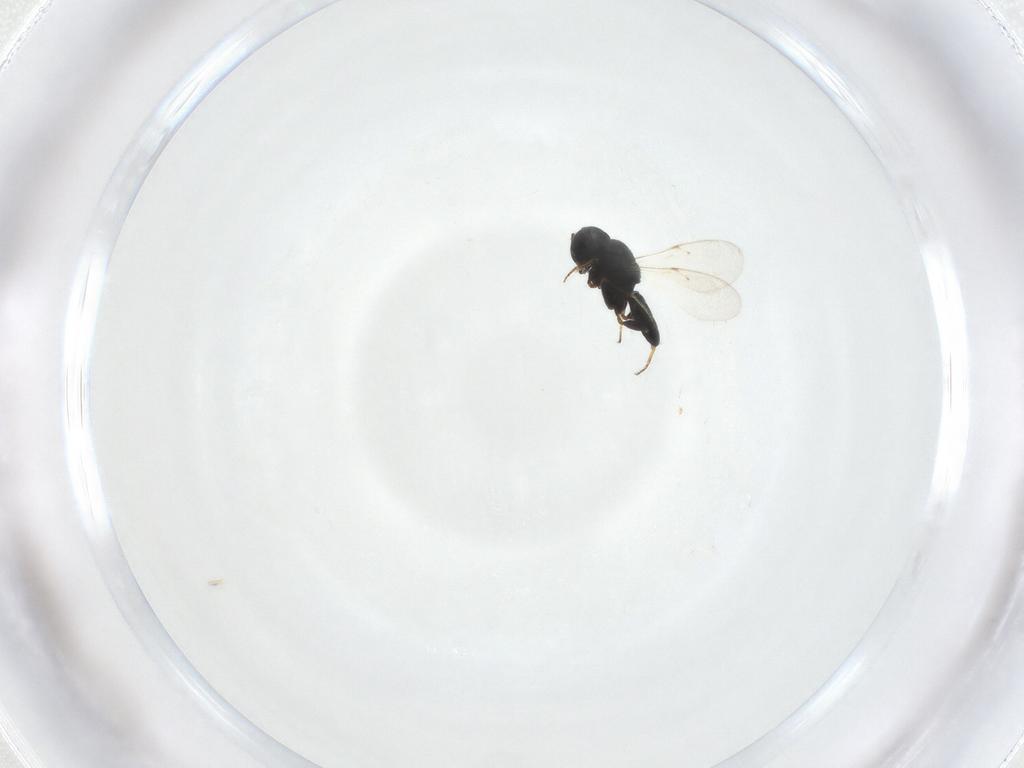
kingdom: Animalia
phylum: Arthropoda
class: Insecta
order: Hymenoptera
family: Scelionidae
